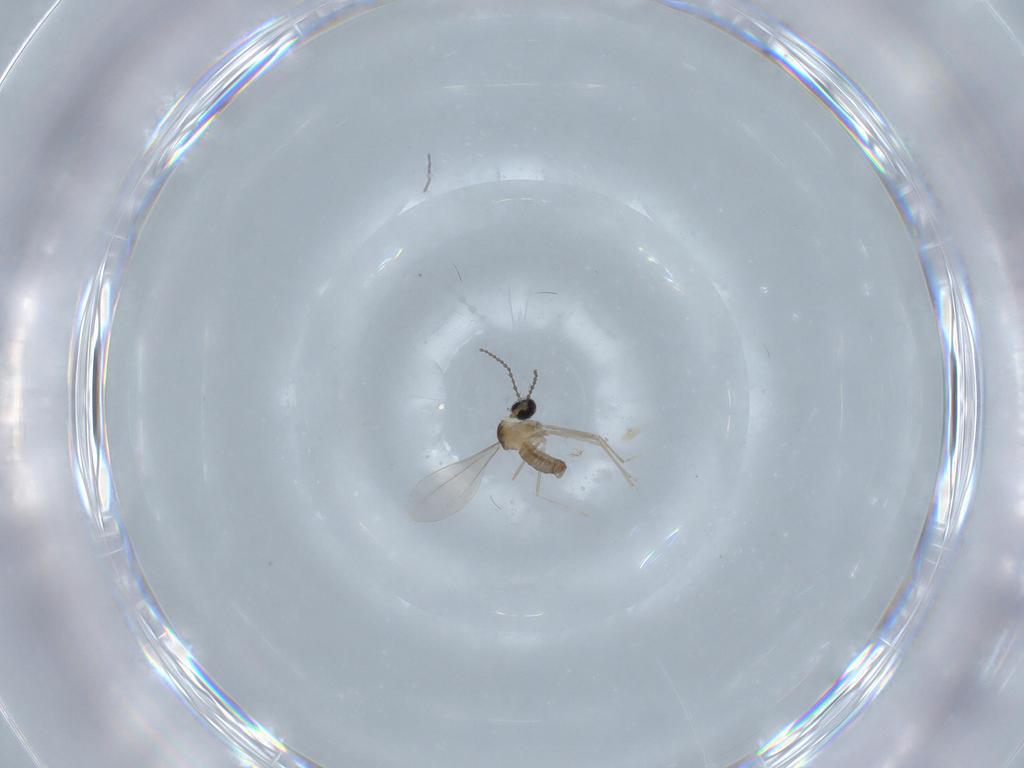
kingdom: Animalia
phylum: Arthropoda
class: Insecta
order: Diptera
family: Cecidomyiidae
